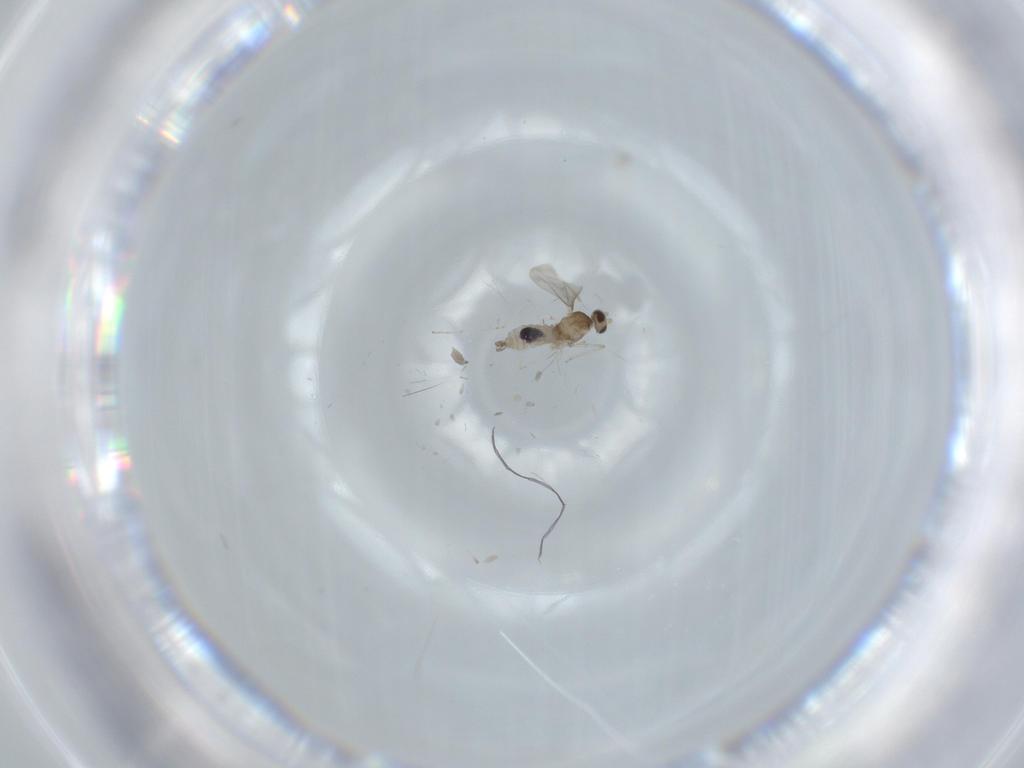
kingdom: Animalia
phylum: Arthropoda
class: Insecta
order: Diptera
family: Cecidomyiidae
